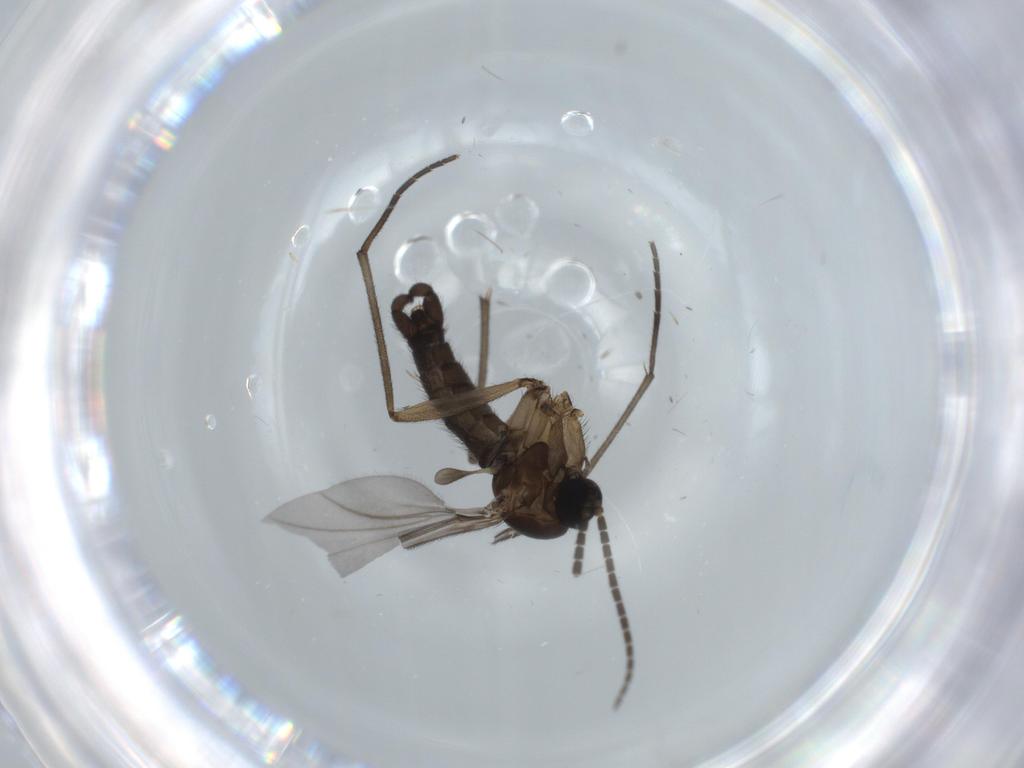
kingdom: Animalia
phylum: Arthropoda
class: Insecta
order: Diptera
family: Sciaridae
